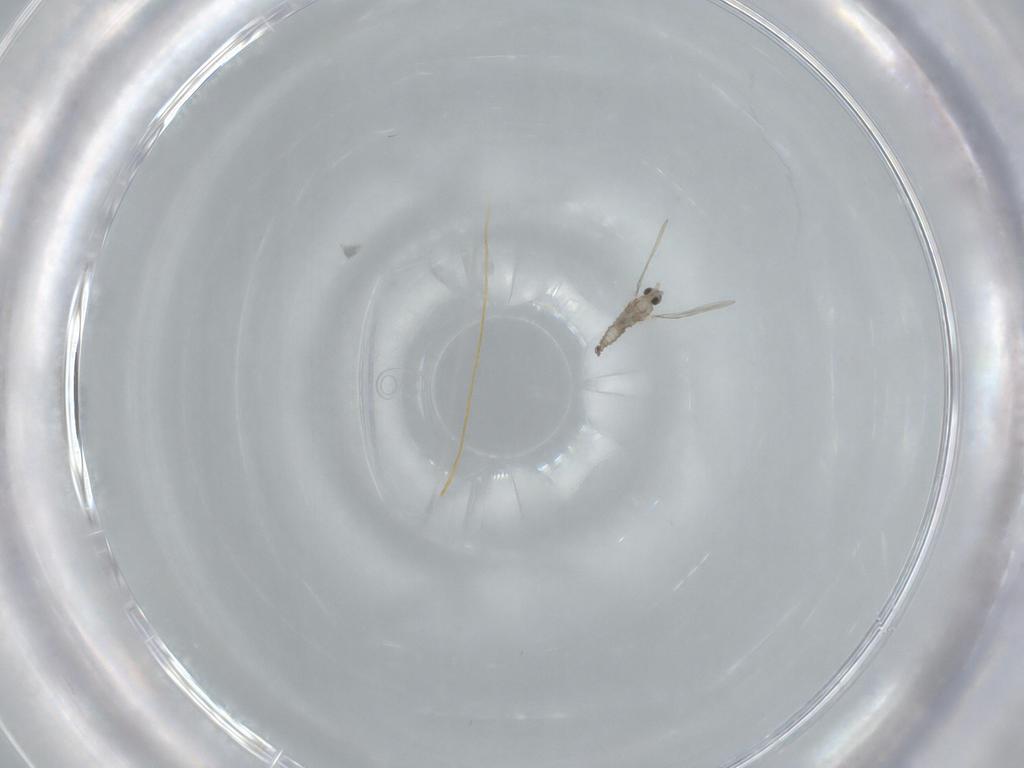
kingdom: Animalia
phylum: Arthropoda
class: Insecta
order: Diptera
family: Cecidomyiidae
